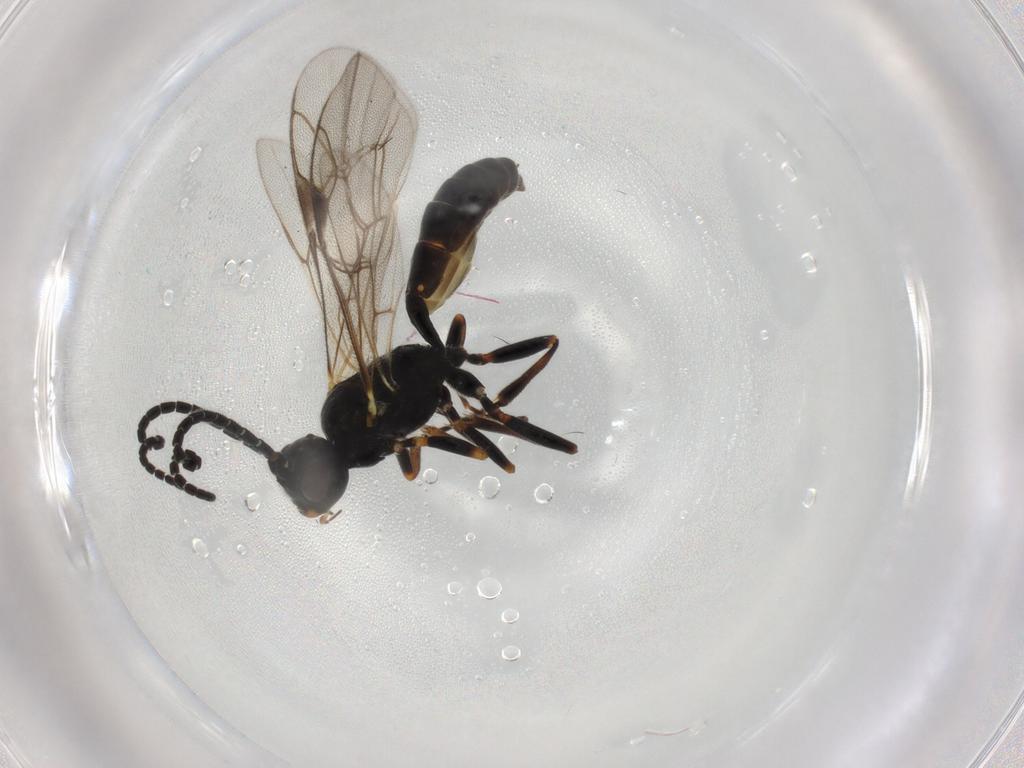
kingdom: Animalia
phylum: Arthropoda
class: Insecta
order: Hymenoptera
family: Ichneumonidae
